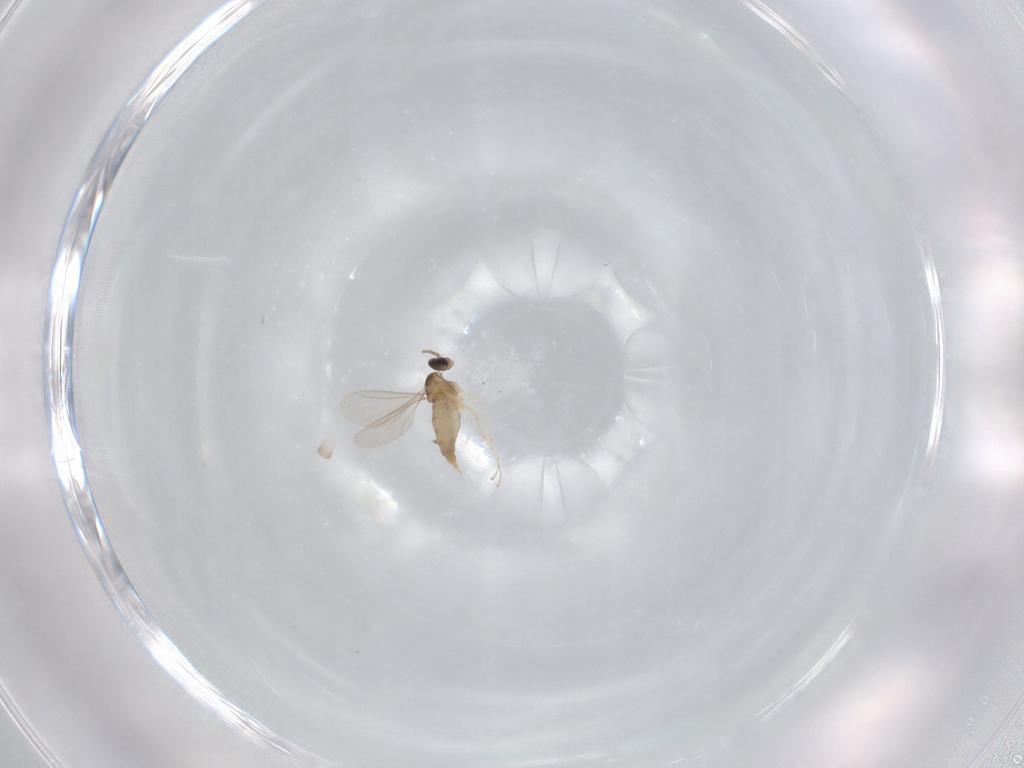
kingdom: Animalia
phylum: Arthropoda
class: Insecta
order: Diptera
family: Cecidomyiidae
